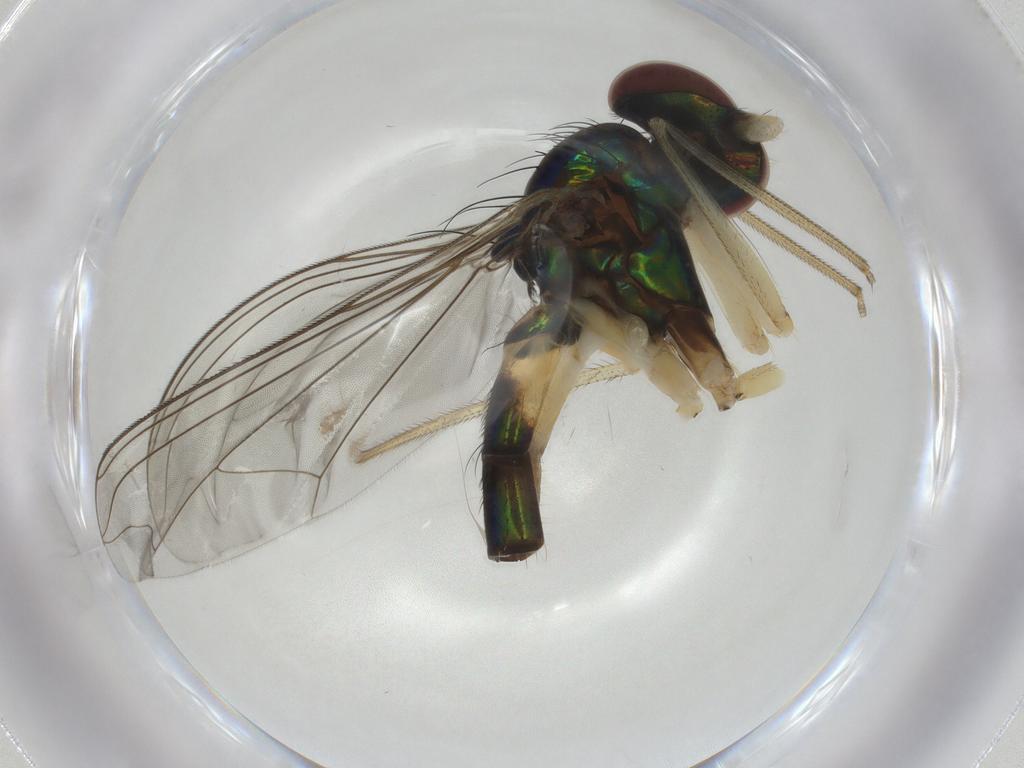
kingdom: Animalia
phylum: Arthropoda
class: Insecta
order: Diptera
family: Dolichopodidae
